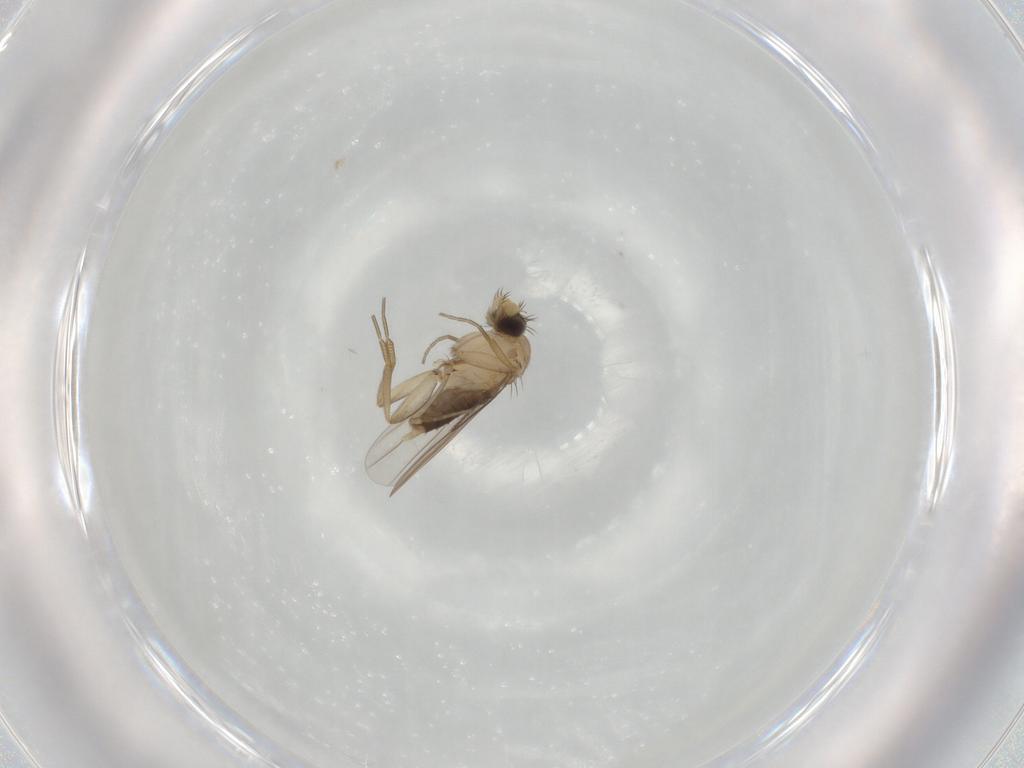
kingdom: Animalia
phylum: Arthropoda
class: Insecta
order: Diptera
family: Phoridae
